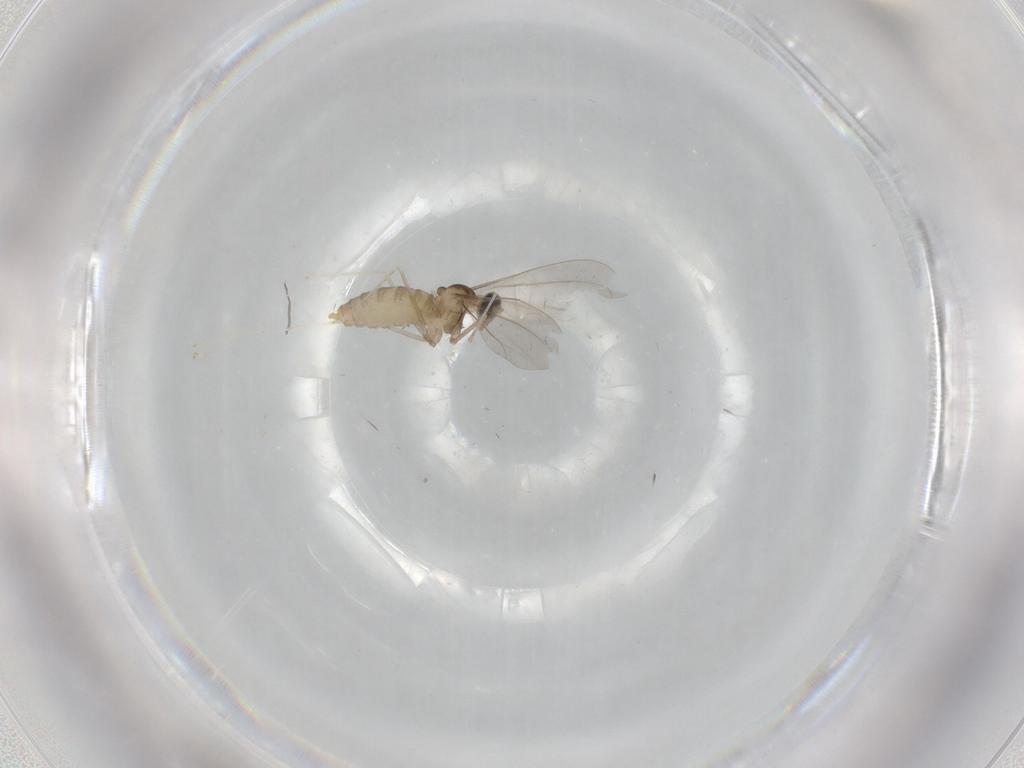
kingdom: Animalia
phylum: Arthropoda
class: Insecta
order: Diptera
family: Cecidomyiidae
